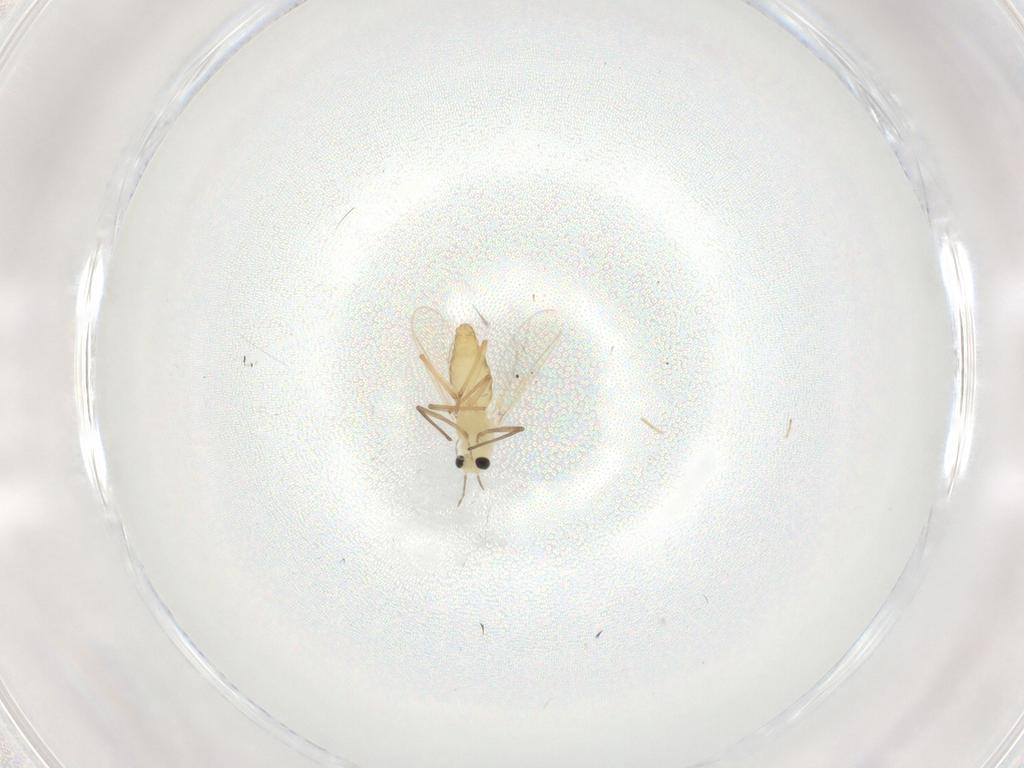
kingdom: Animalia
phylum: Arthropoda
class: Insecta
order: Diptera
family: Chironomidae
